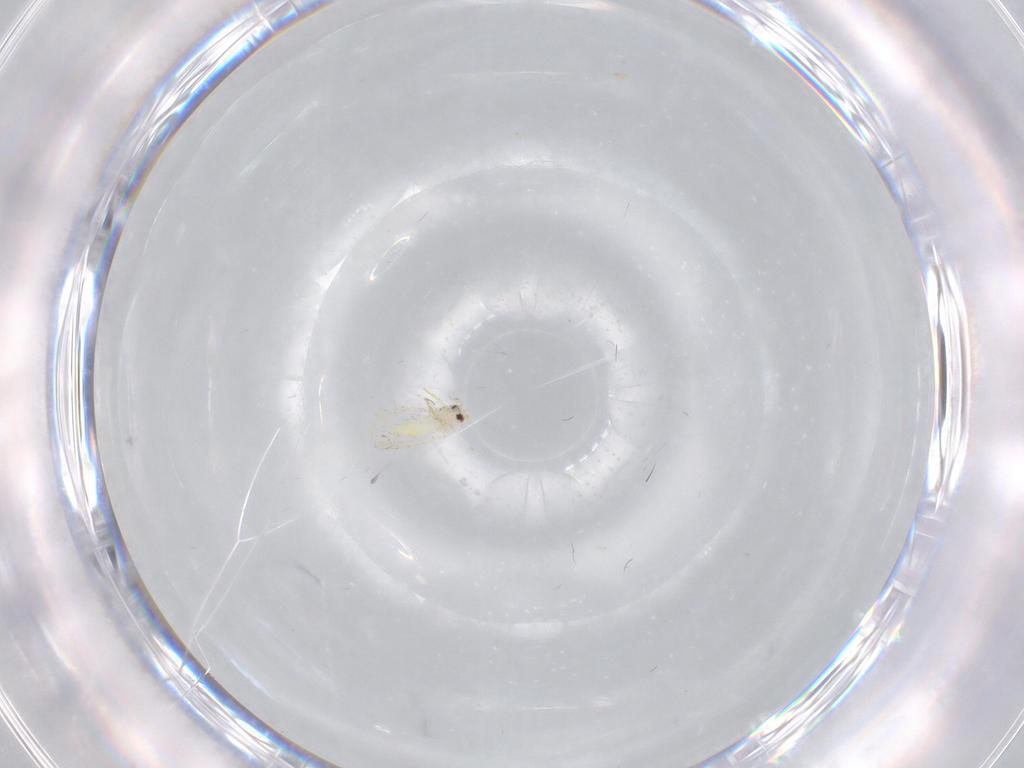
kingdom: Animalia
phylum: Arthropoda
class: Insecta
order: Hemiptera
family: Aleyrodidae
